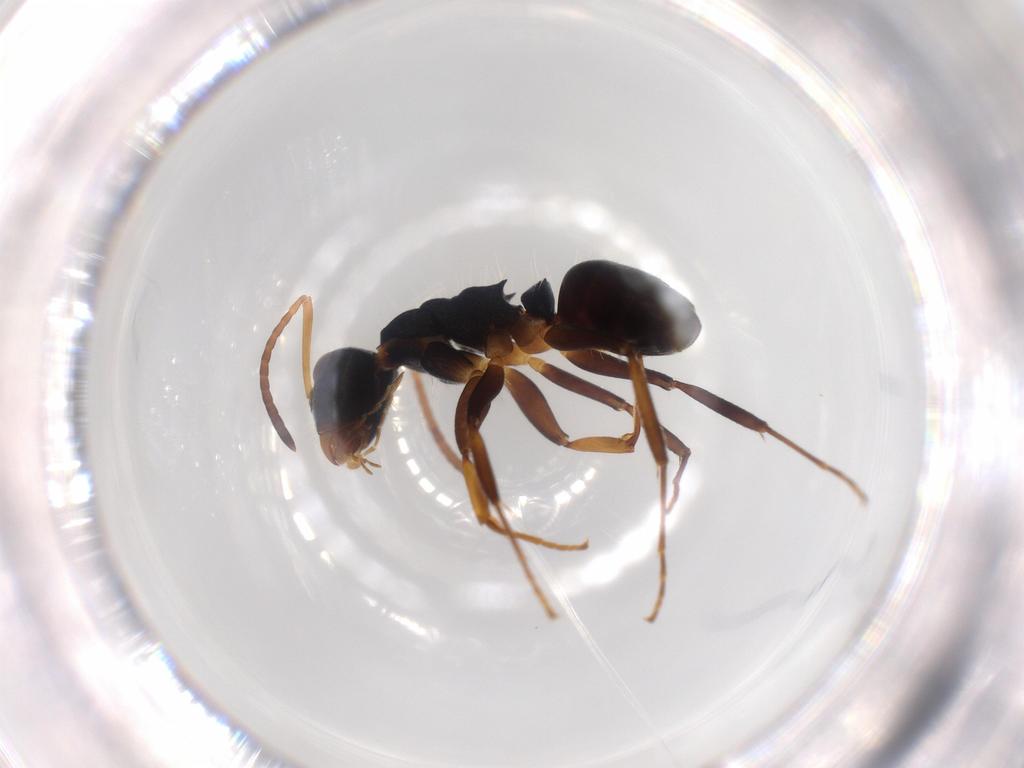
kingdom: Animalia
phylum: Arthropoda
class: Insecta
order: Hymenoptera
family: Formicidae
